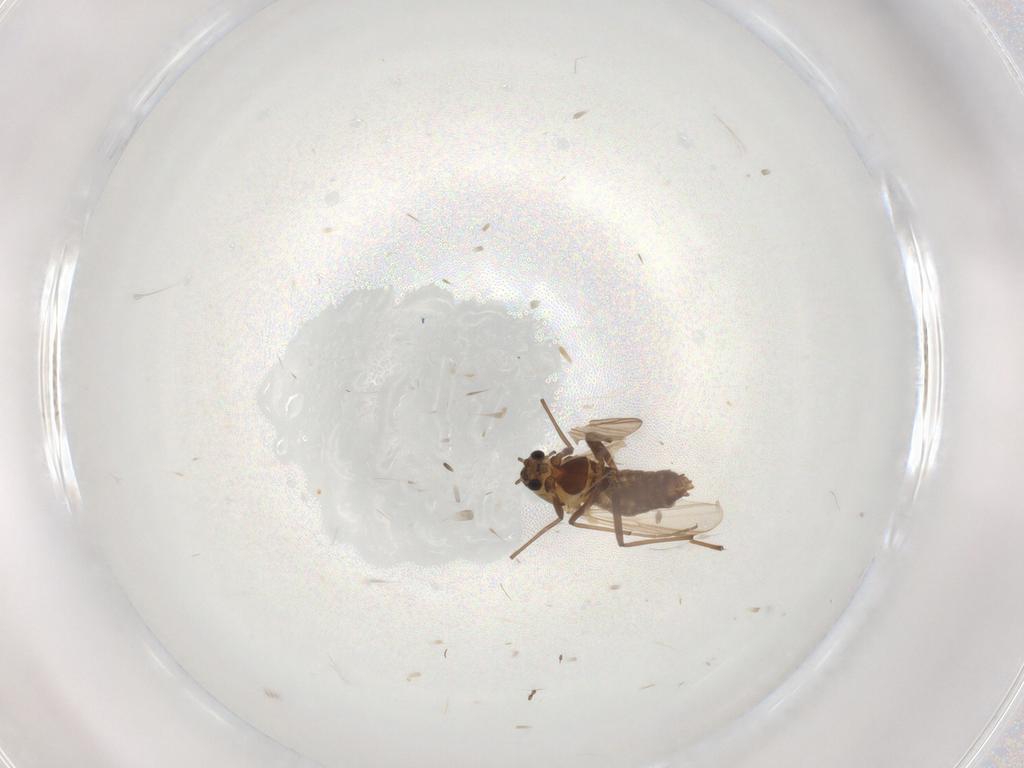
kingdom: Animalia
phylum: Arthropoda
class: Insecta
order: Diptera
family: Chironomidae
